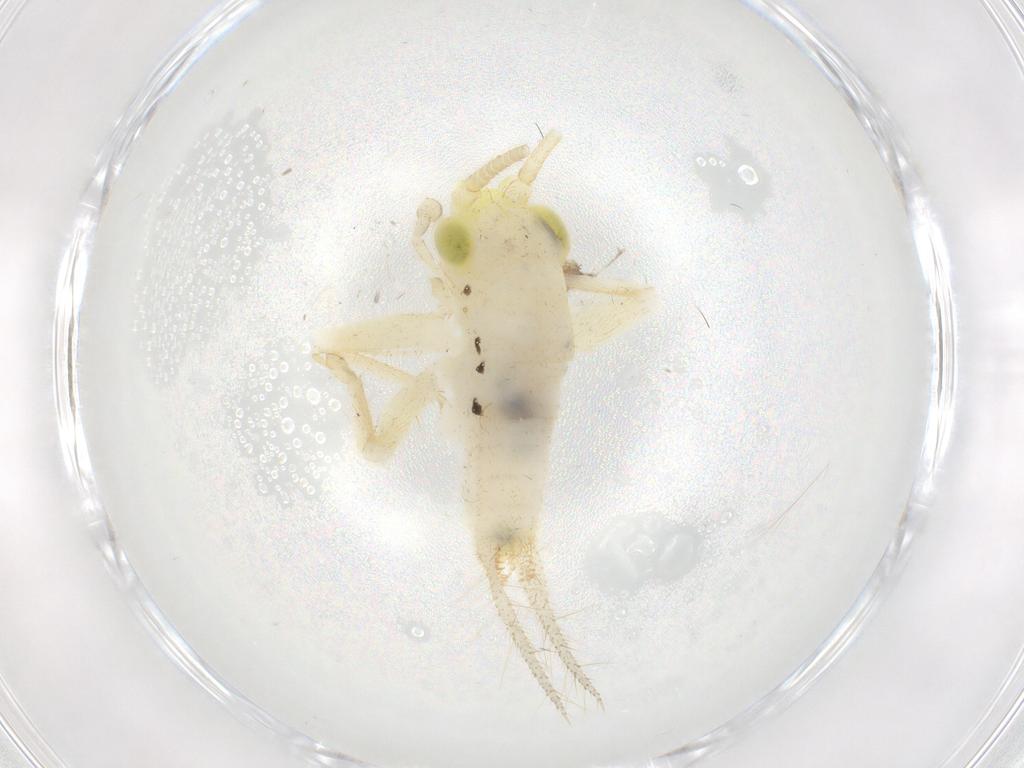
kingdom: Animalia
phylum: Arthropoda
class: Insecta
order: Orthoptera
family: Trigonidiidae
